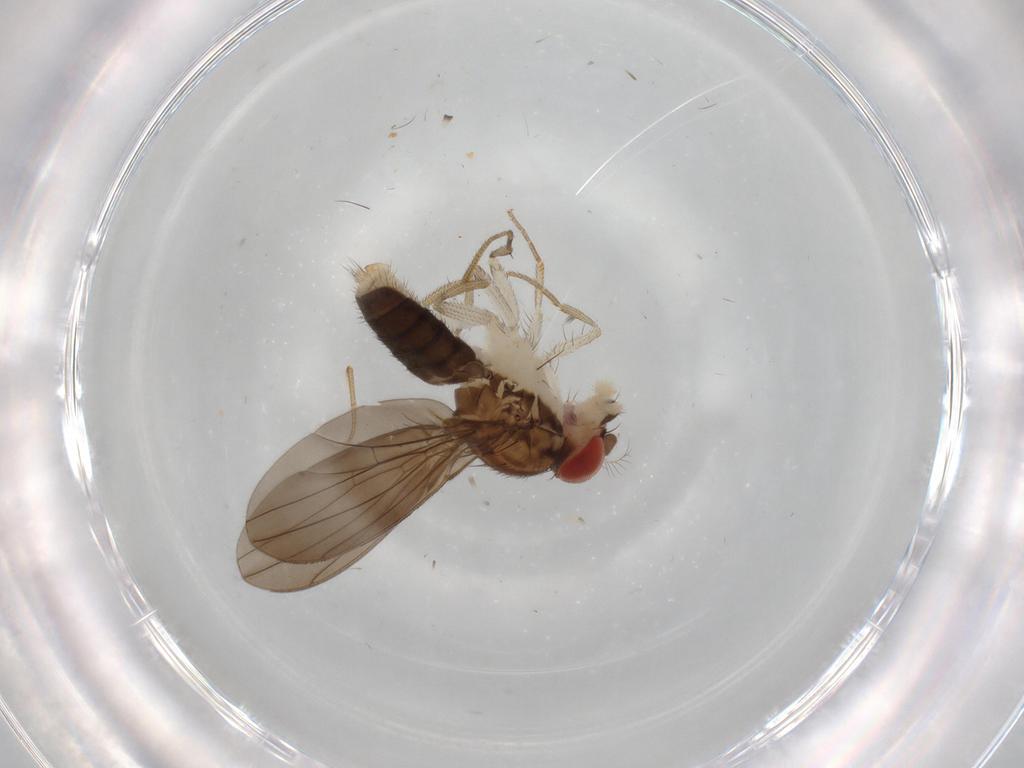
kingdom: Animalia
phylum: Arthropoda
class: Insecta
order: Diptera
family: Drosophilidae
